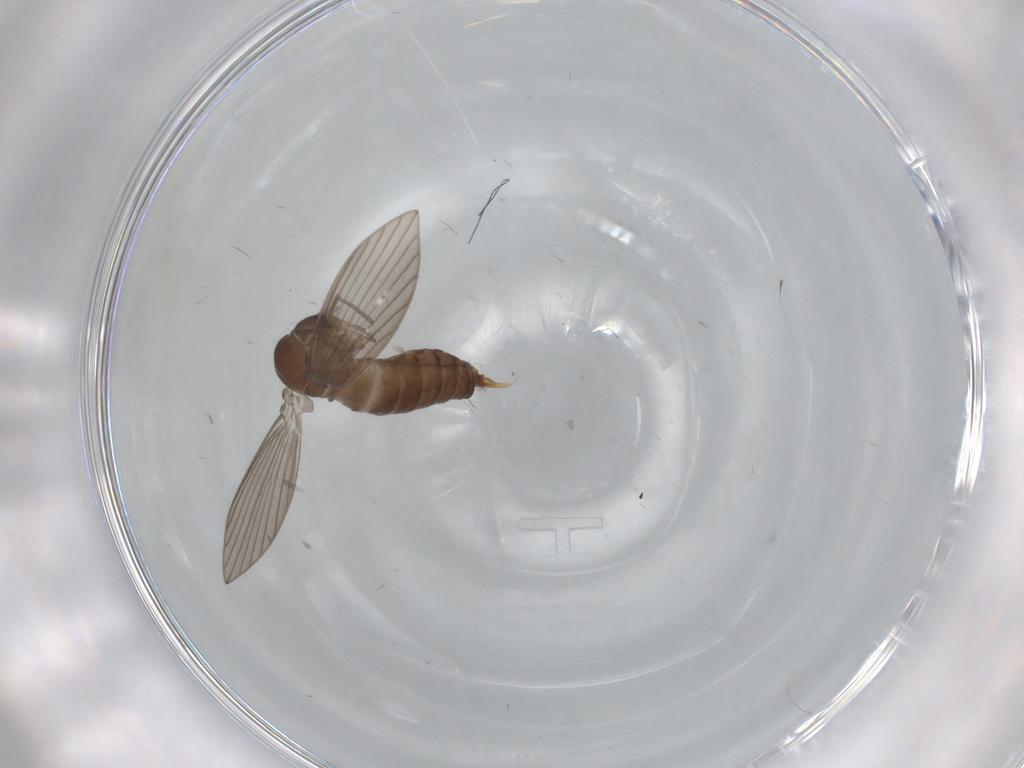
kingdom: Animalia
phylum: Arthropoda
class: Insecta
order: Diptera
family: Psychodidae
